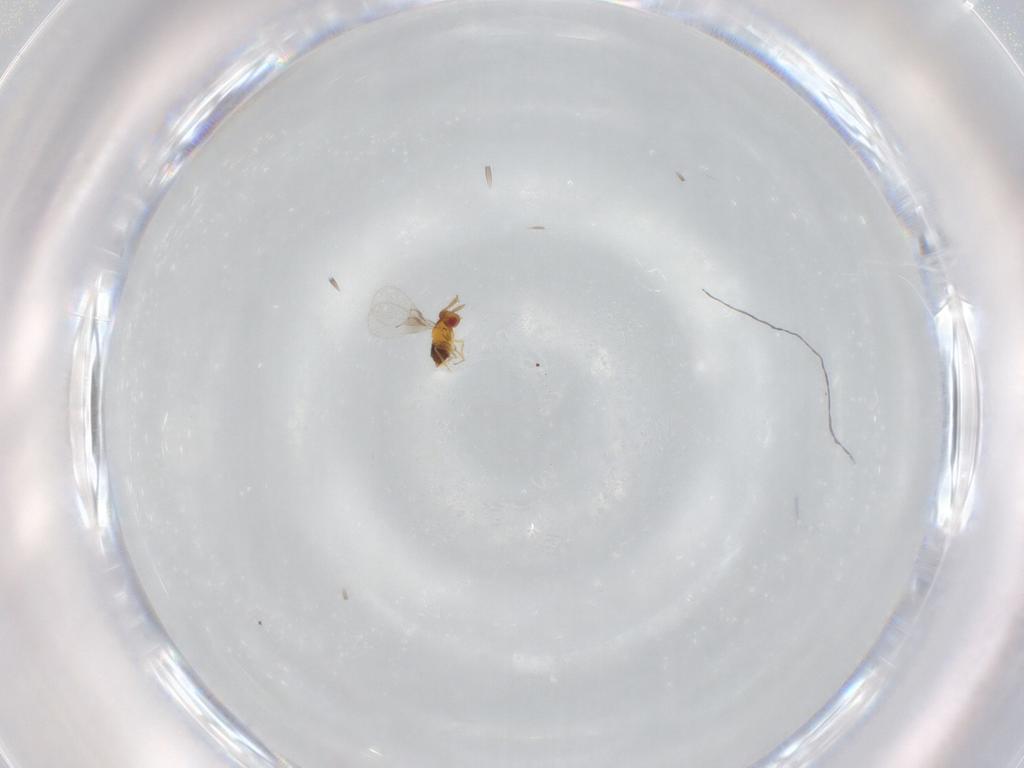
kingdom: Animalia
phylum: Arthropoda
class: Insecta
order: Hymenoptera
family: Trichogrammatidae
